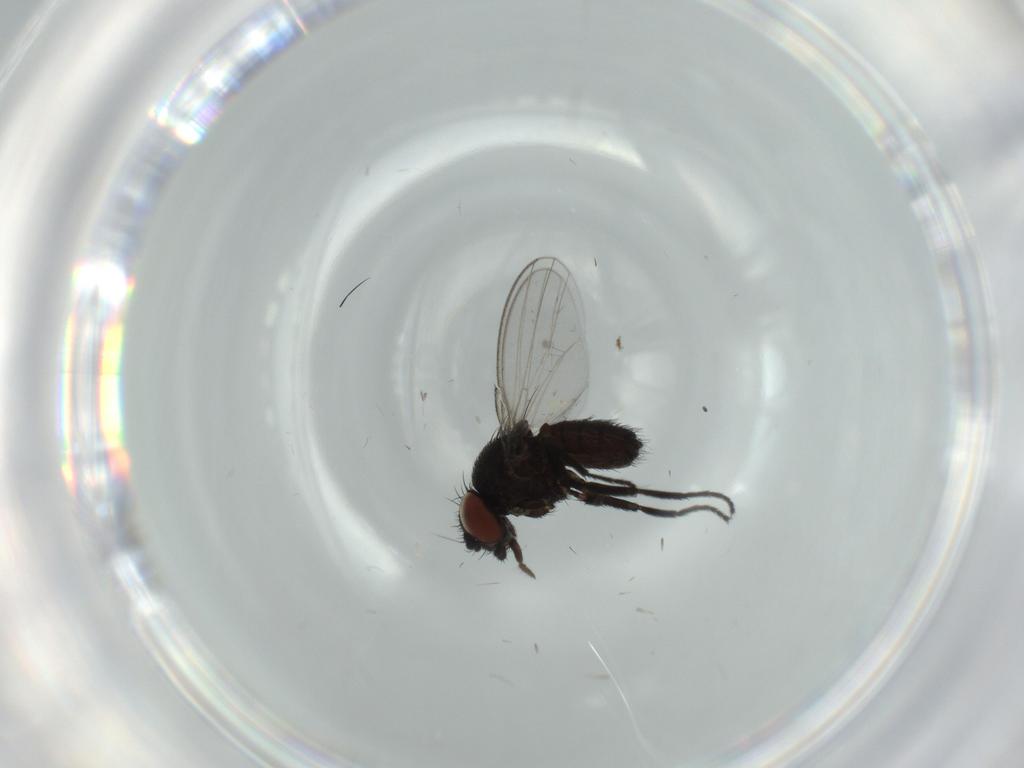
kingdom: Animalia
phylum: Arthropoda
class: Insecta
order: Diptera
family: Milichiidae
